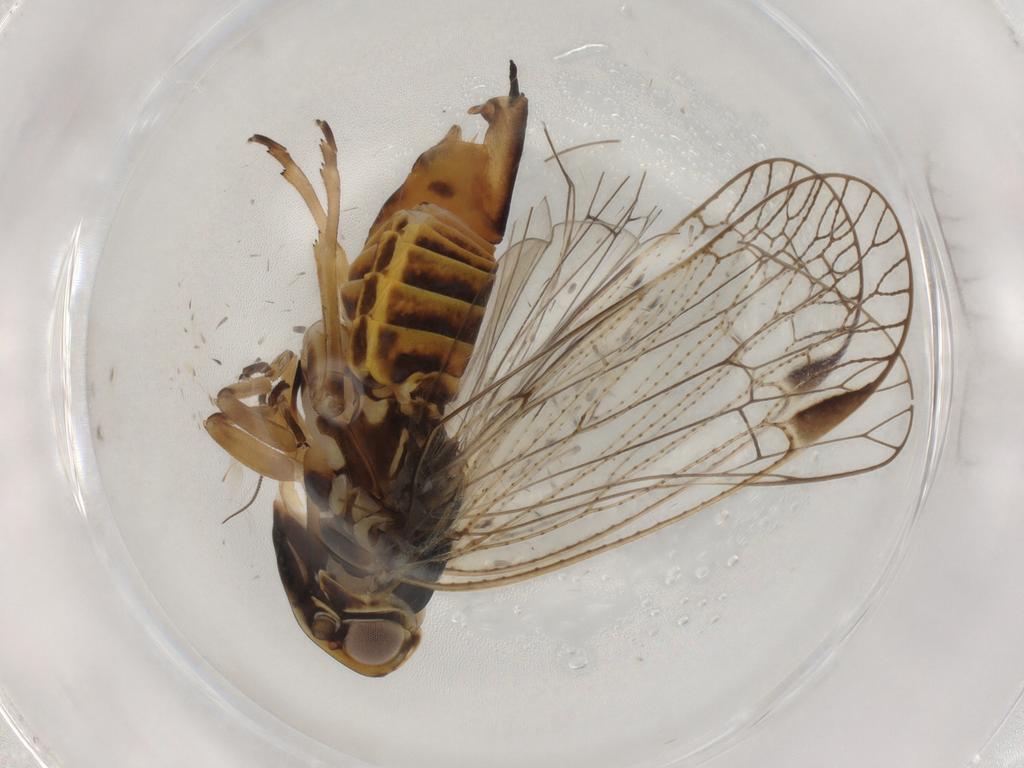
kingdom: Animalia
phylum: Arthropoda
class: Insecta
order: Hemiptera
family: Cixiidae
